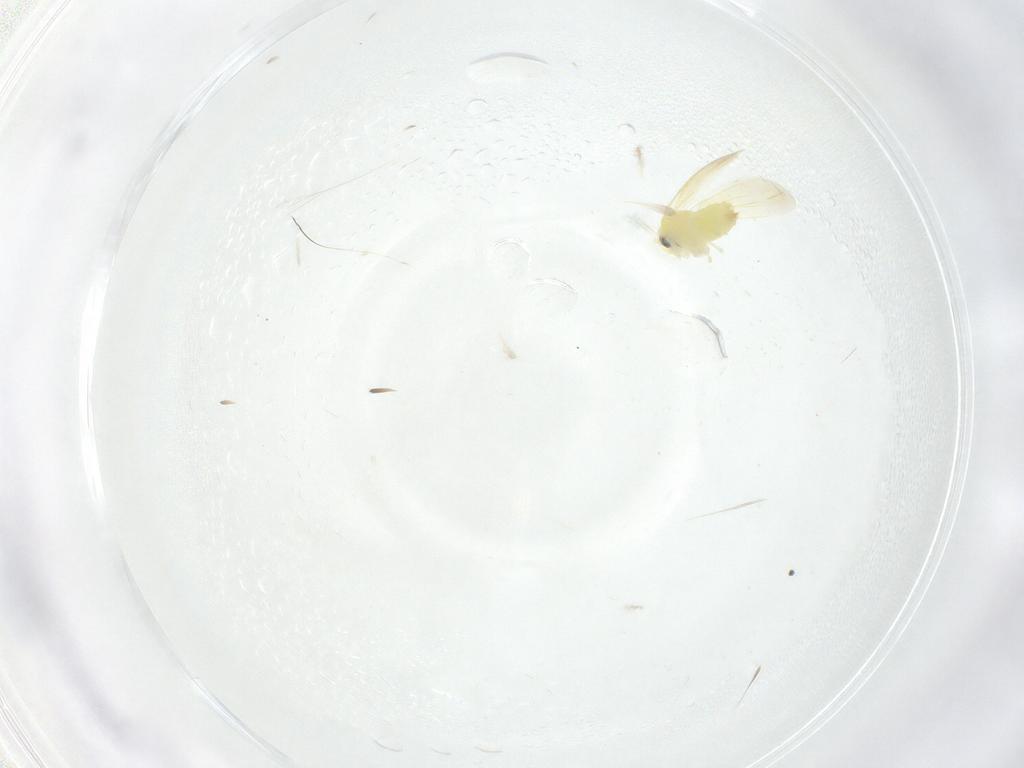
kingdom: Animalia
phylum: Arthropoda
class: Insecta
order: Hemiptera
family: Aleyrodidae
